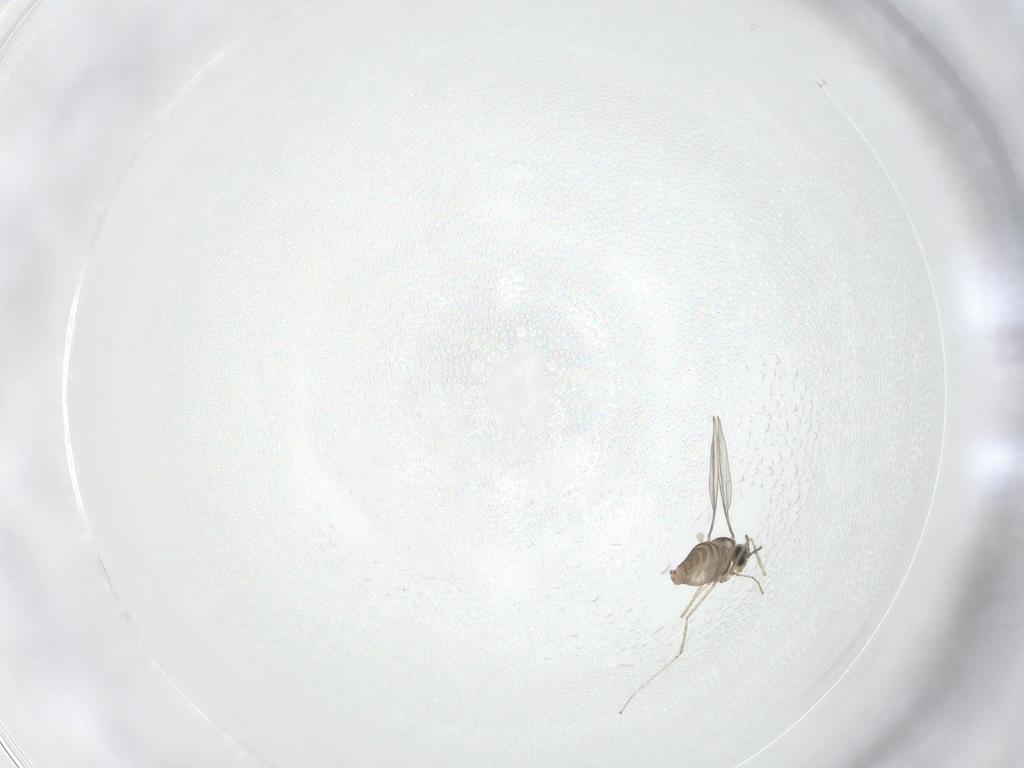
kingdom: Animalia
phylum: Arthropoda
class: Insecta
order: Diptera
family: Cecidomyiidae
